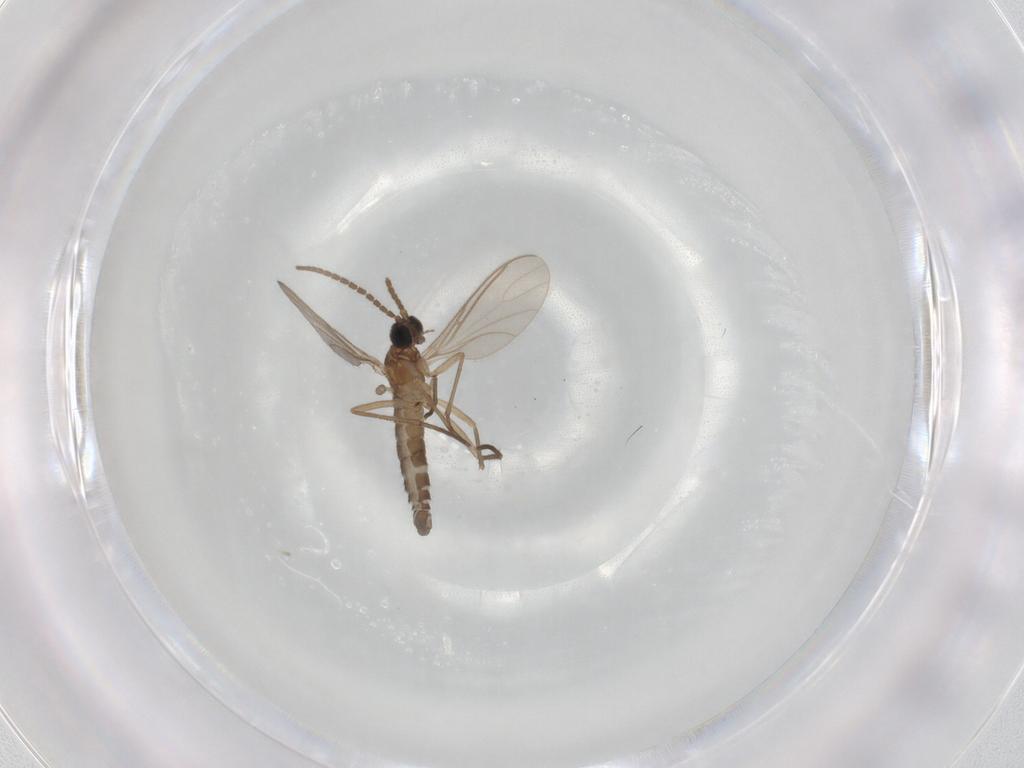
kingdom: Animalia
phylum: Arthropoda
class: Insecta
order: Diptera
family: Sciaridae
